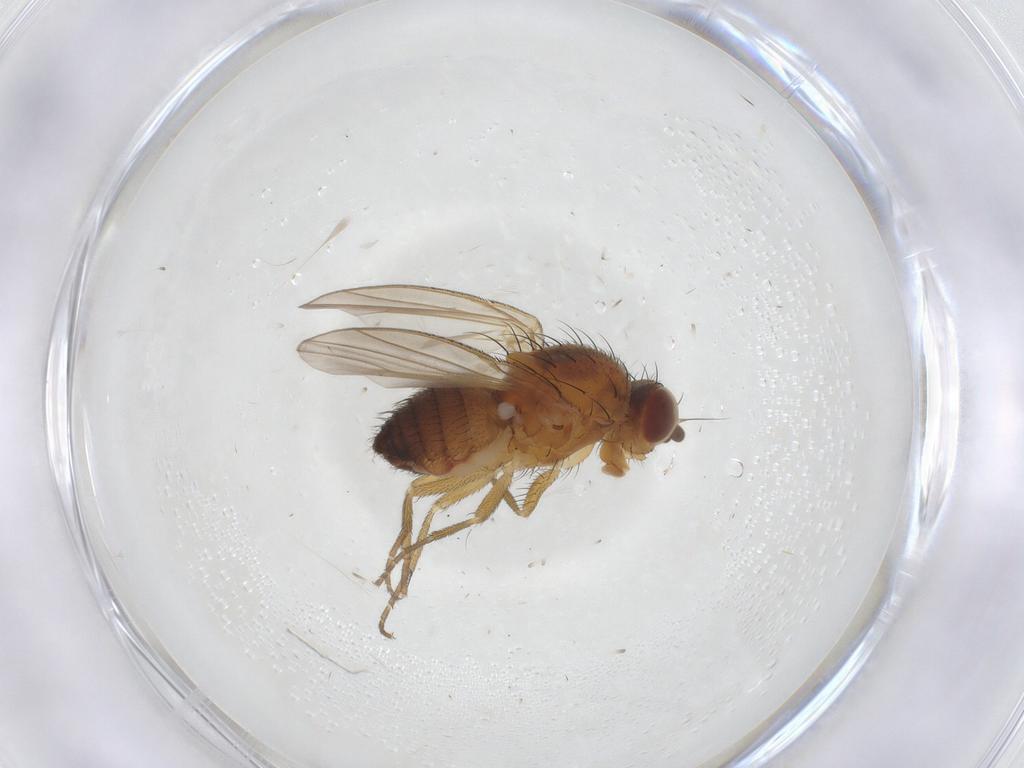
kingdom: Animalia
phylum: Arthropoda
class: Insecta
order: Diptera
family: Heleomyzidae
